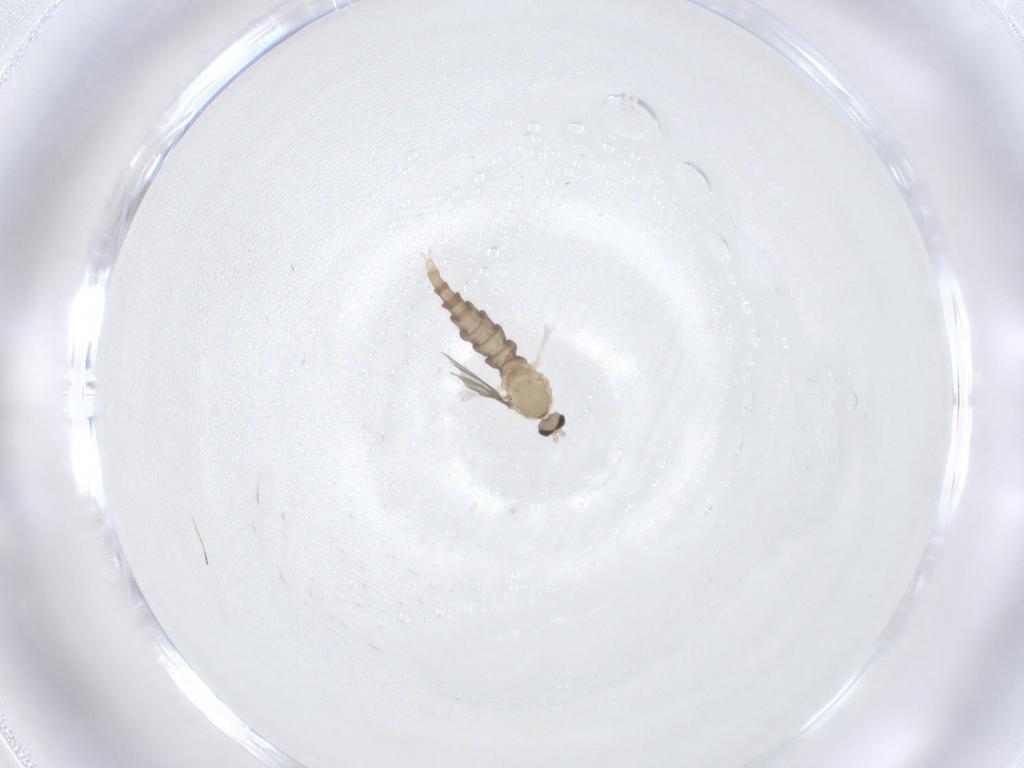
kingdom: Animalia
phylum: Arthropoda
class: Insecta
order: Diptera
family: Cecidomyiidae
